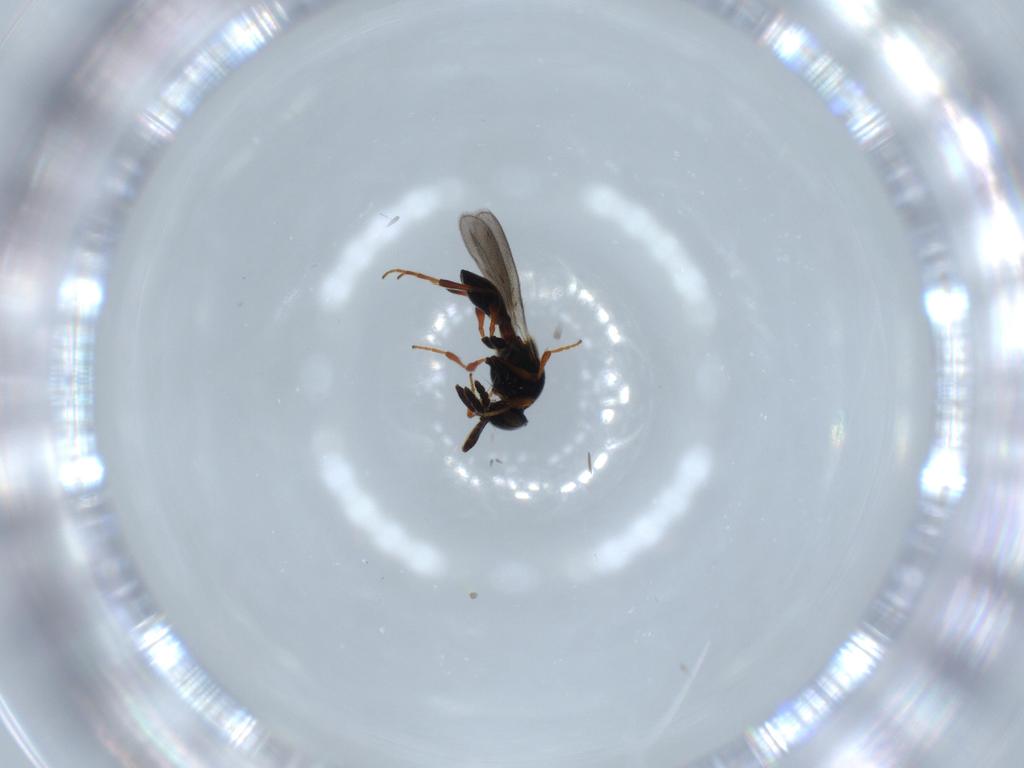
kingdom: Animalia
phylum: Arthropoda
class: Insecta
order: Hymenoptera
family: Platygastridae
